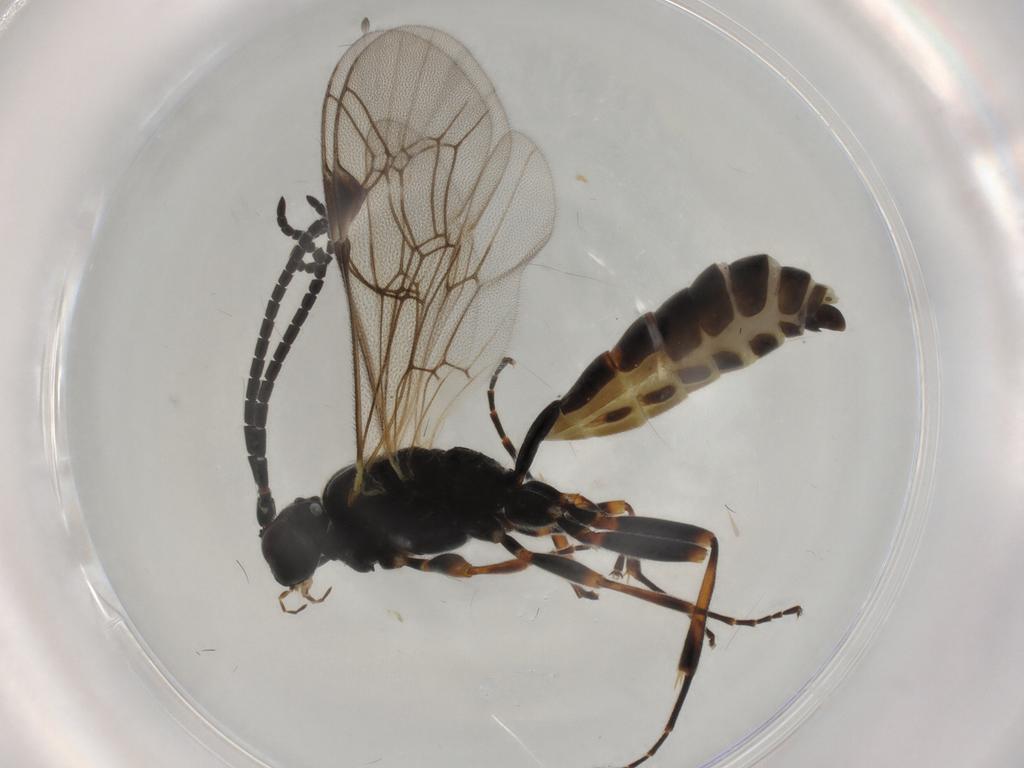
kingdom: Animalia
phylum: Arthropoda
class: Insecta
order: Hymenoptera
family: Ichneumonidae
